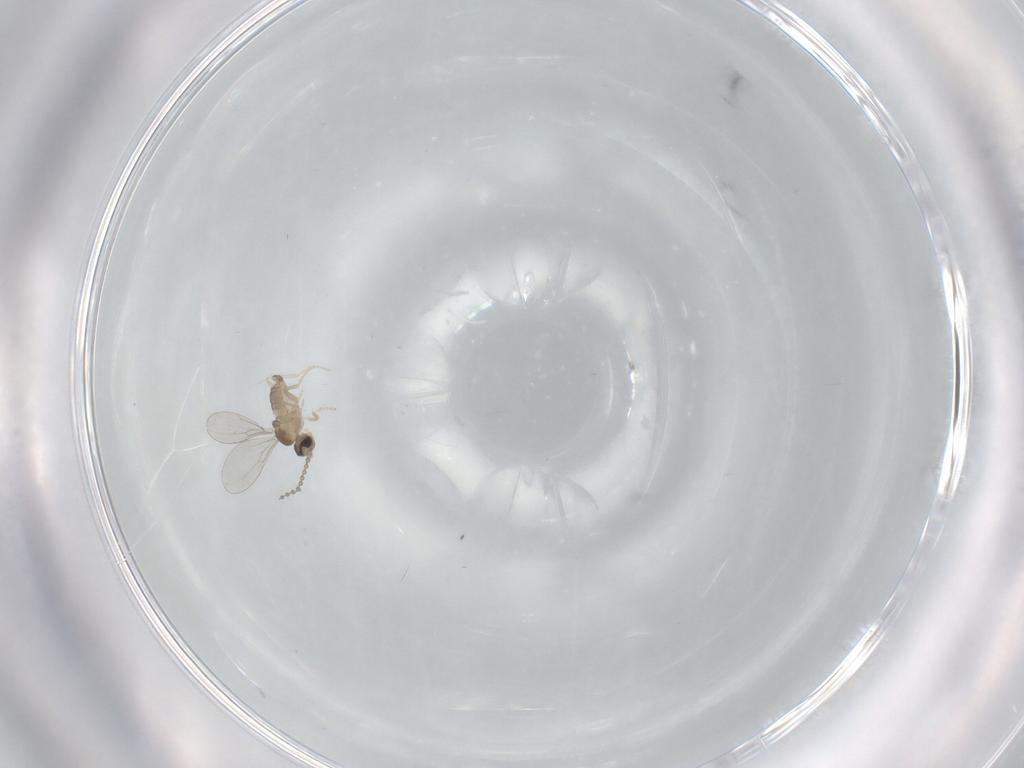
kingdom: Animalia
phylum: Arthropoda
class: Insecta
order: Diptera
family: Cecidomyiidae
